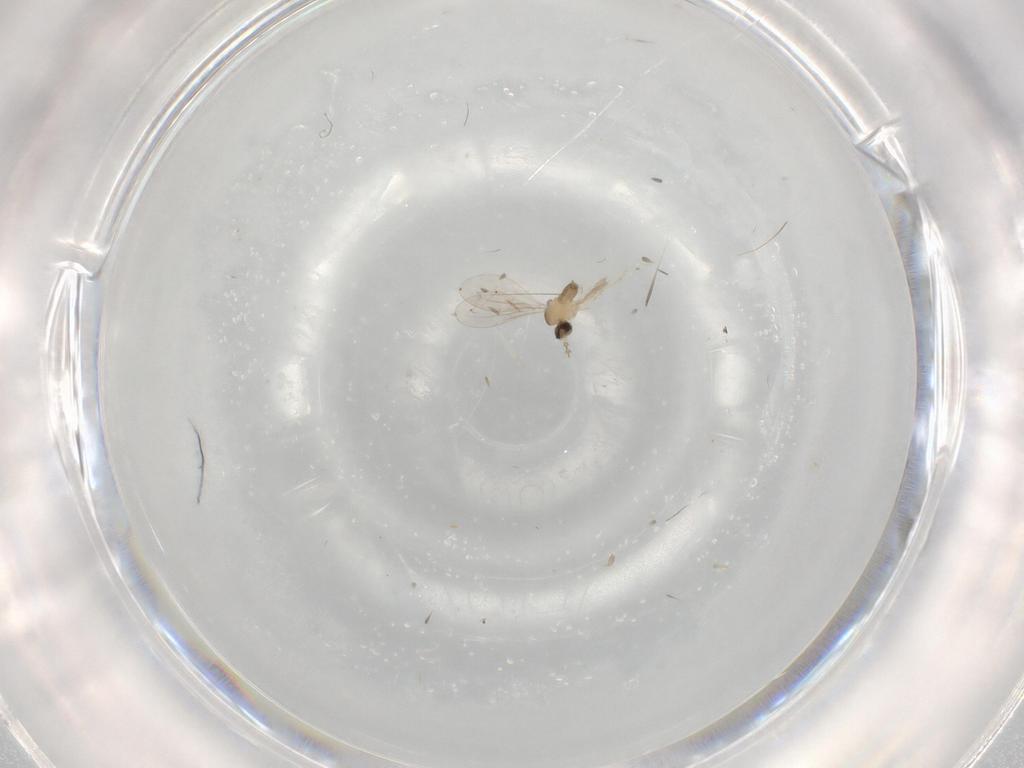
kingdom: Animalia
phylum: Arthropoda
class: Insecta
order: Diptera
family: Cecidomyiidae
